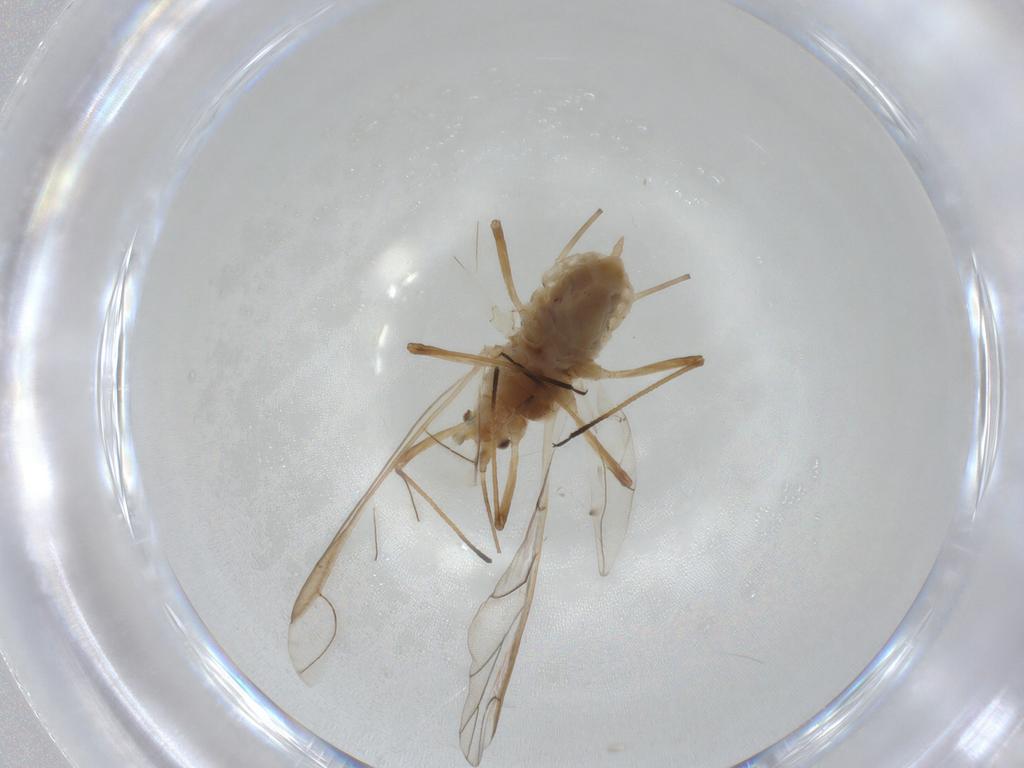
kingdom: Animalia
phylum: Arthropoda
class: Insecta
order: Hemiptera
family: Aphididae
